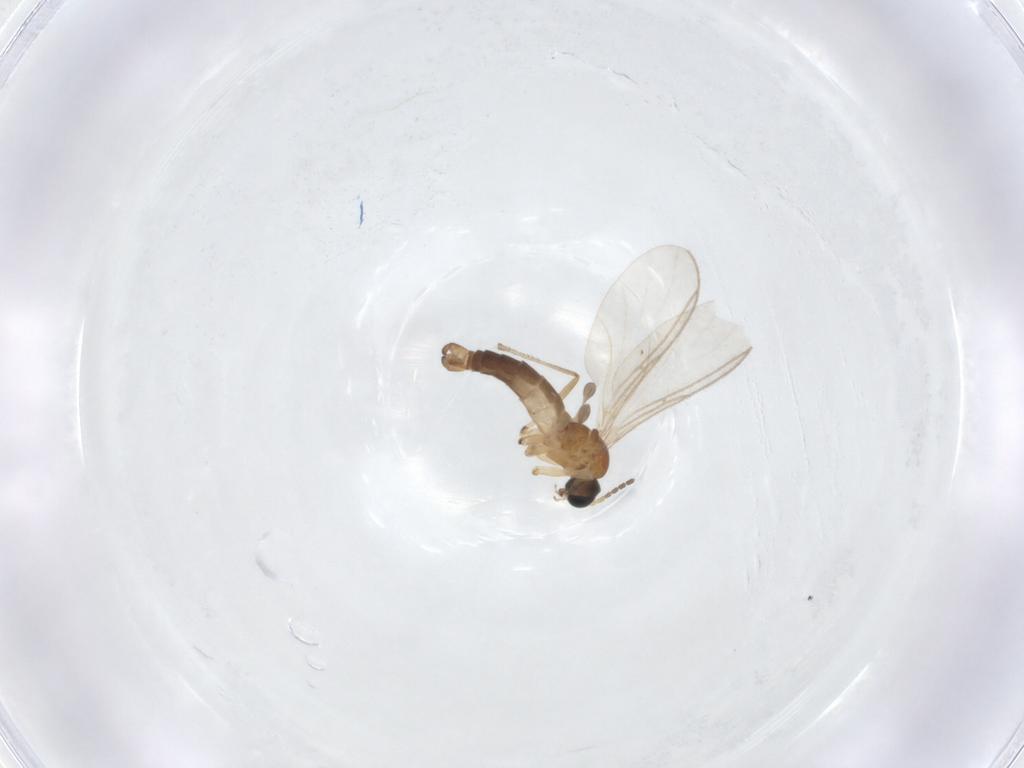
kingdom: Animalia
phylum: Arthropoda
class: Insecta
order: Diptera
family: Sciaridae
